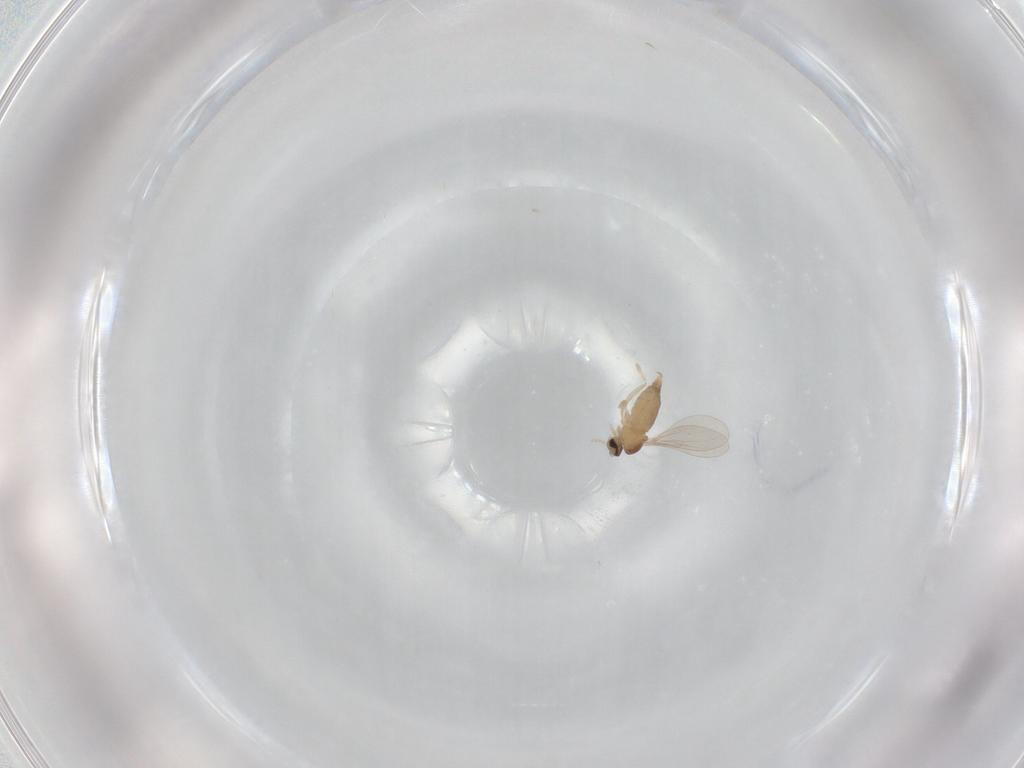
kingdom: Animalia
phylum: Arthropoda
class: Insecta
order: Diptera
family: Cecidomyiidae
